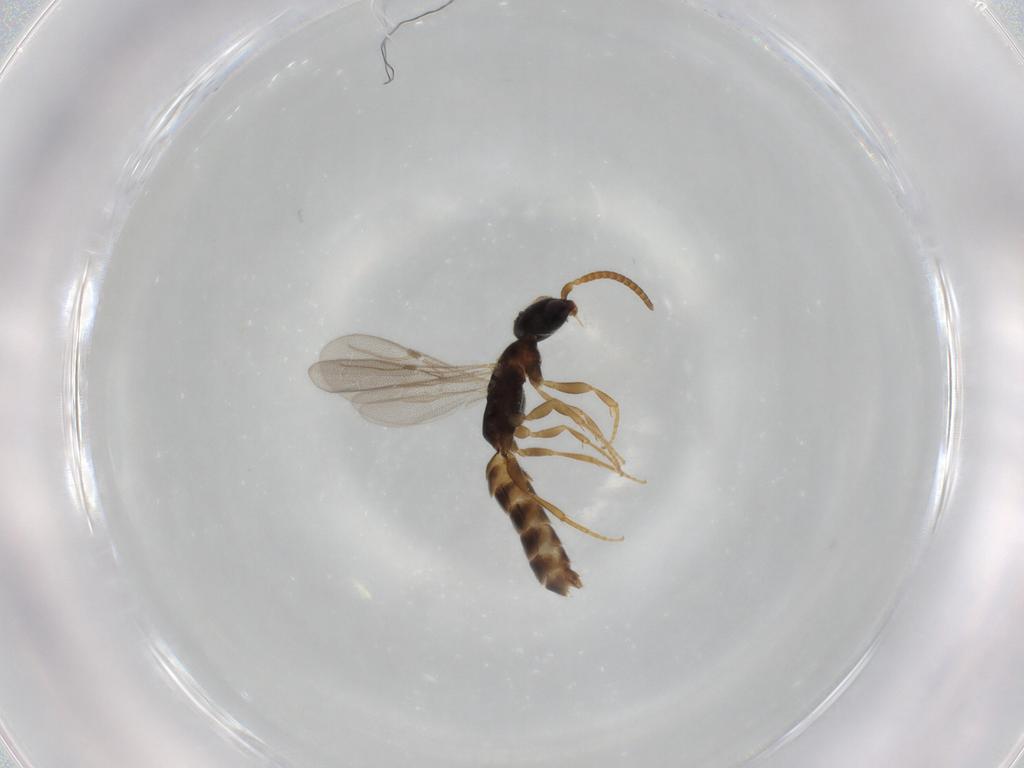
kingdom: Animalia
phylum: Arthropoda
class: Insecta
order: Hymenoptera
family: Bethylidae
